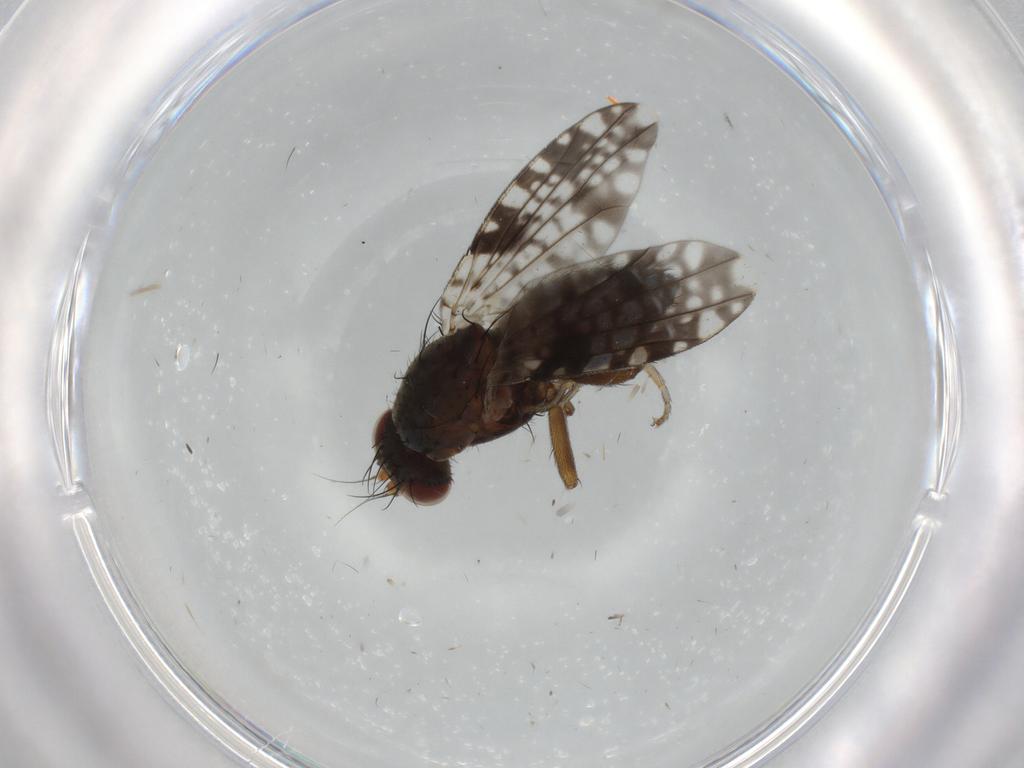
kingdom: Animalia
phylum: Arthropoda
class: Insecta
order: Diptera
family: Tephritidae
